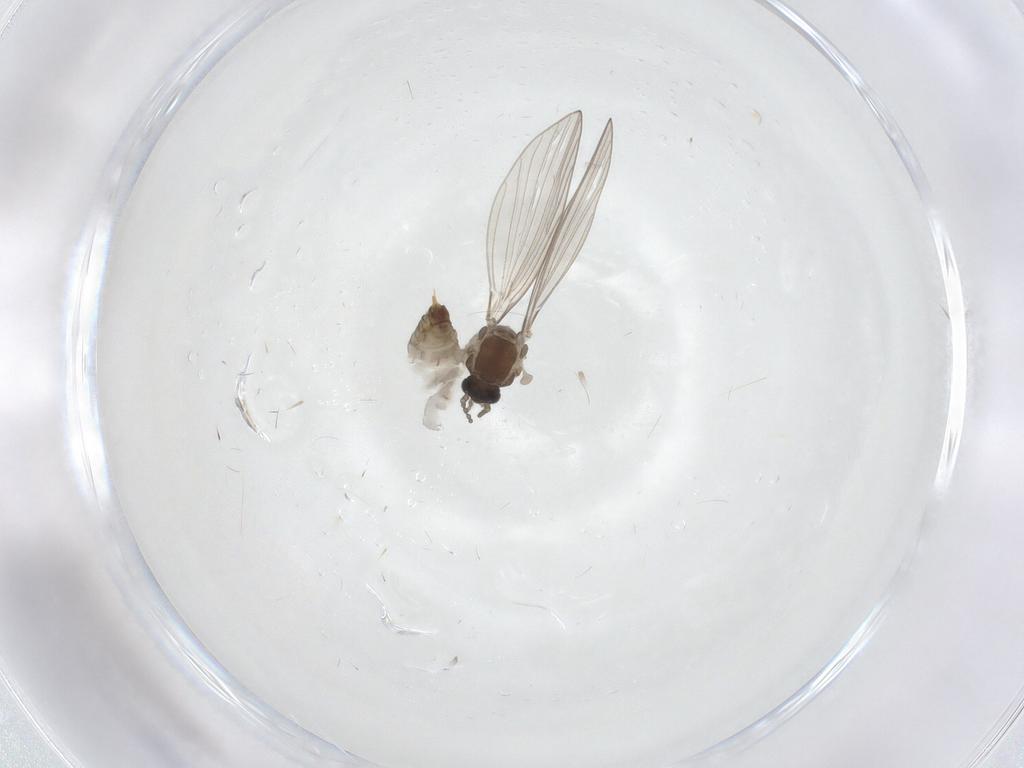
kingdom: Animalia
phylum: Arthropoda
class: Insecta
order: Diptera
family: Psychodidae
